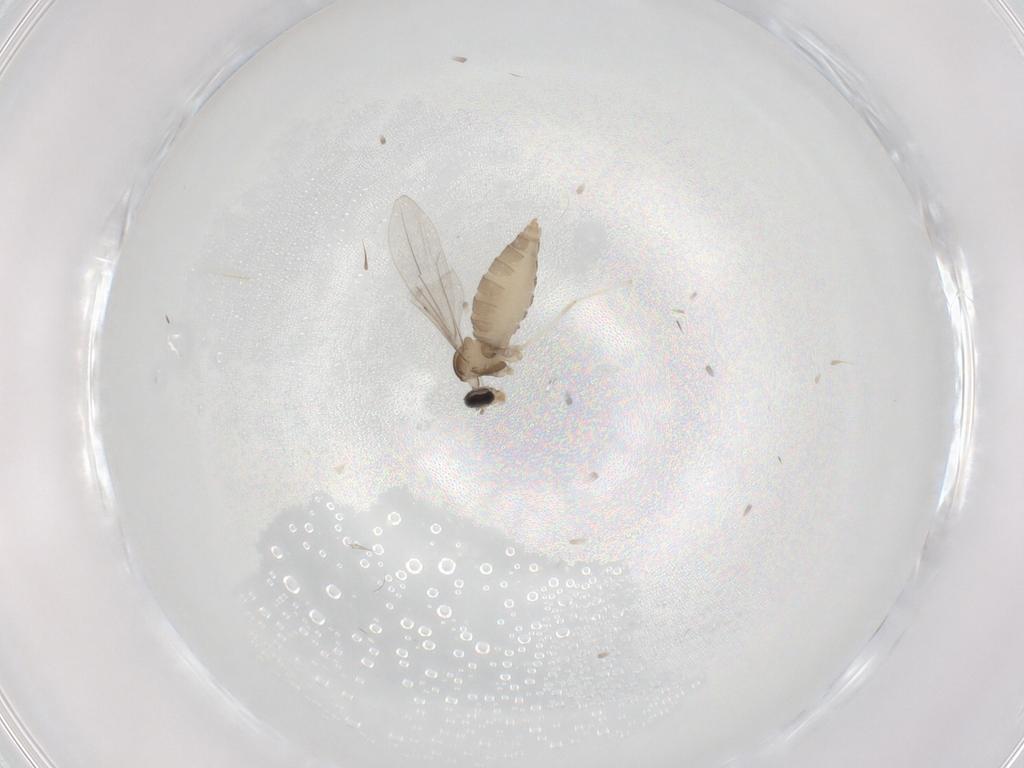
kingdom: Animalia
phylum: Arthropoda
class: Insecta
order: Diptera
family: Cecidomyiidae
